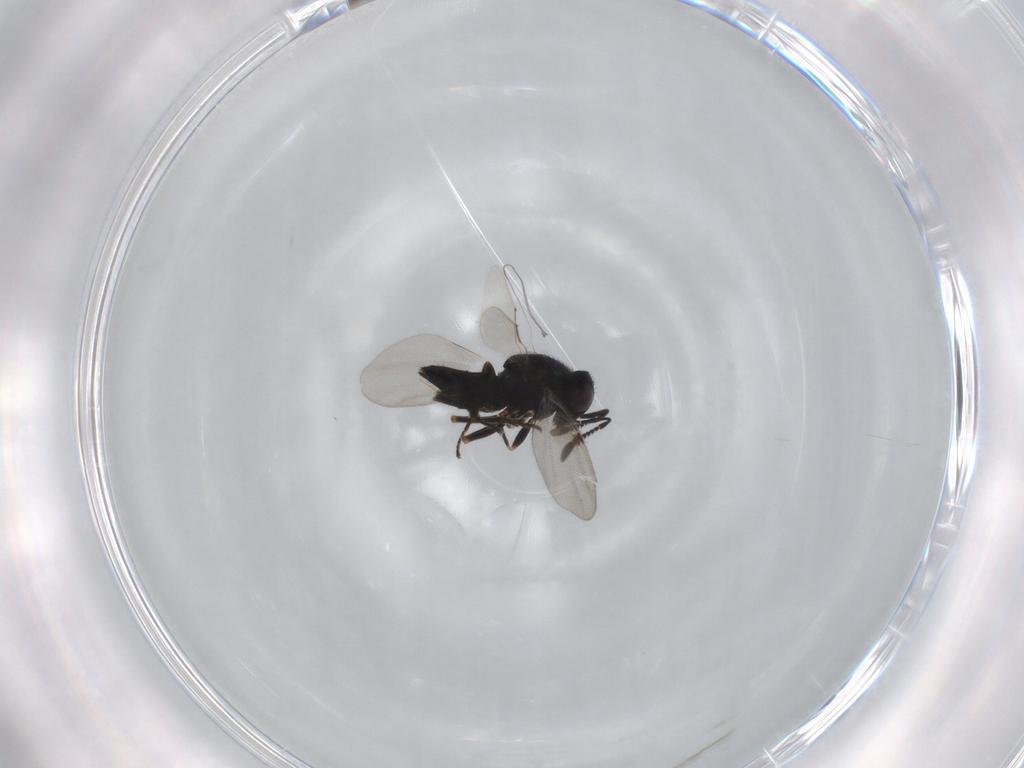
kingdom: Animalia
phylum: Arthropoda
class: Insecta
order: Hymenoptera
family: Encyrtidae
